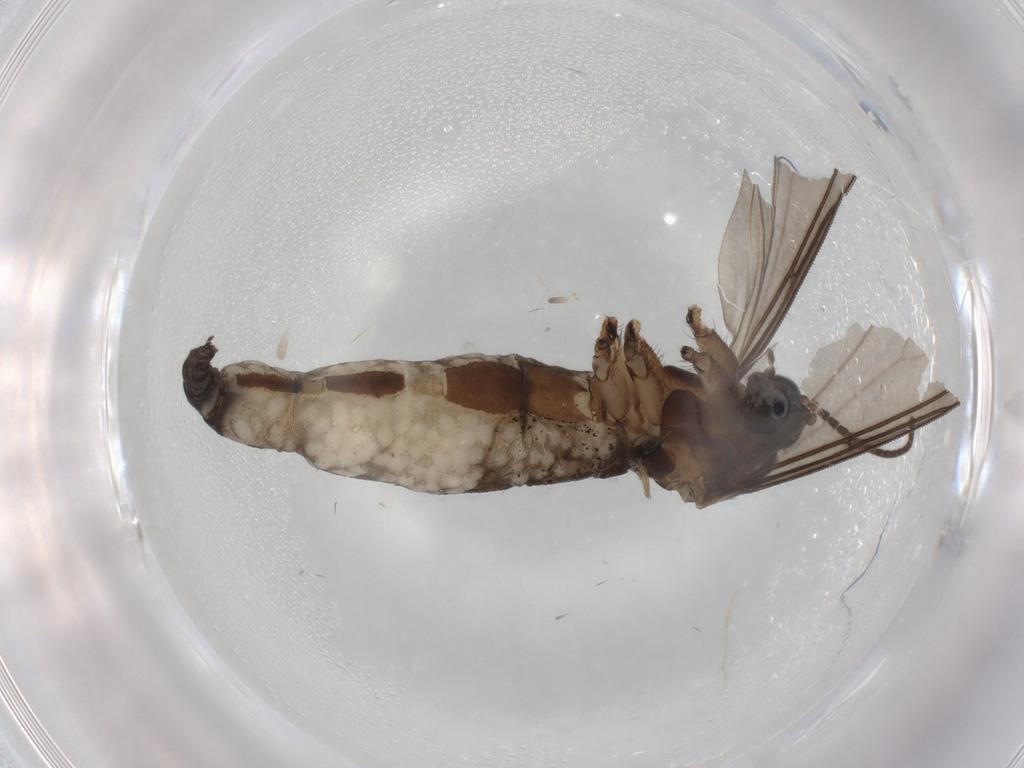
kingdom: Animalia
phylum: Arthropoda
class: Insecta
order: Diptera
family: Sciaridae
